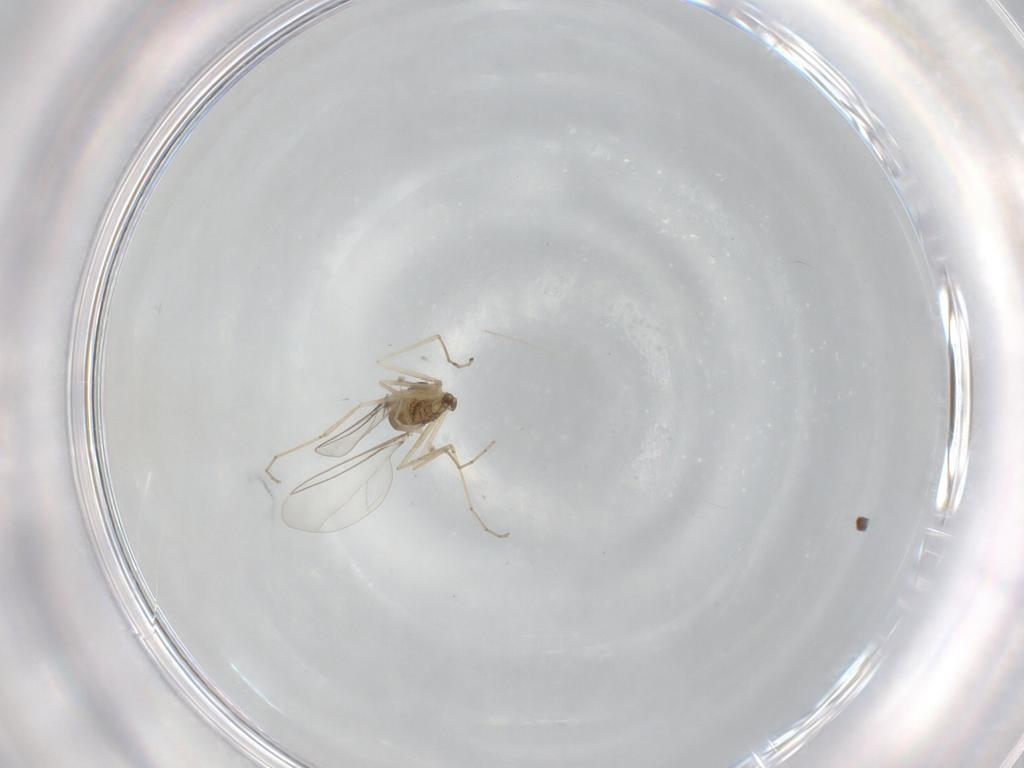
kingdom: Animalia
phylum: Arthropoda
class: Insecta
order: Diptera
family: Cecidomyiidae
